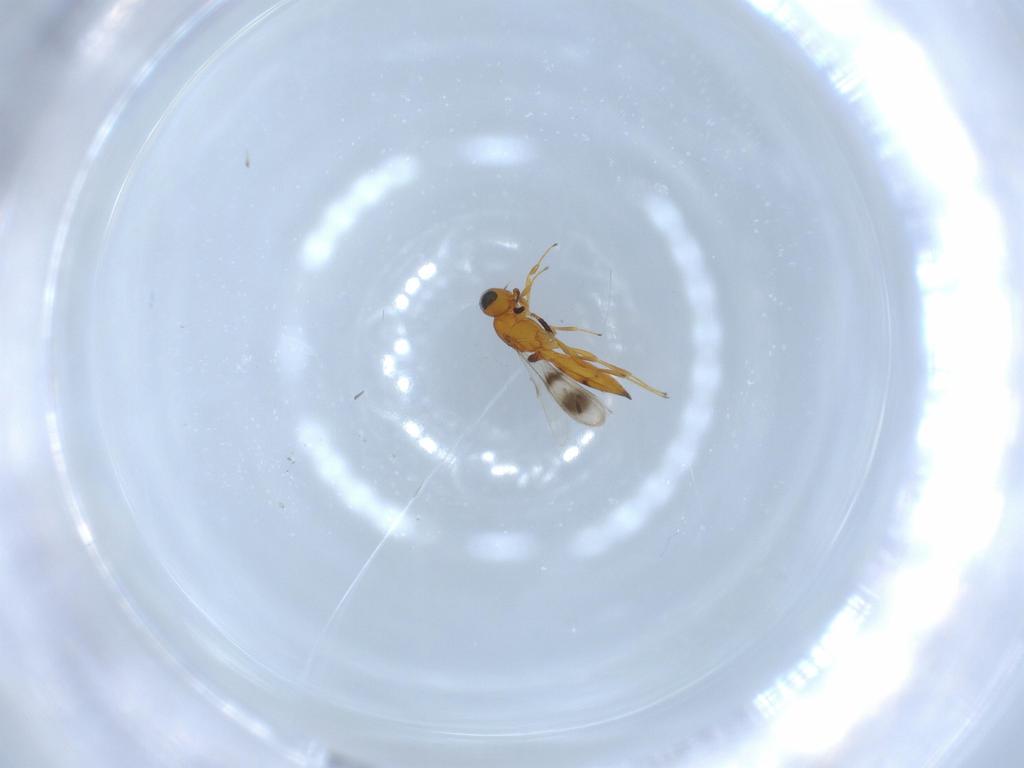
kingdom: Animalia
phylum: Arthropoda
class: Insecta
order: Hymenoptera
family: Scelionidae
